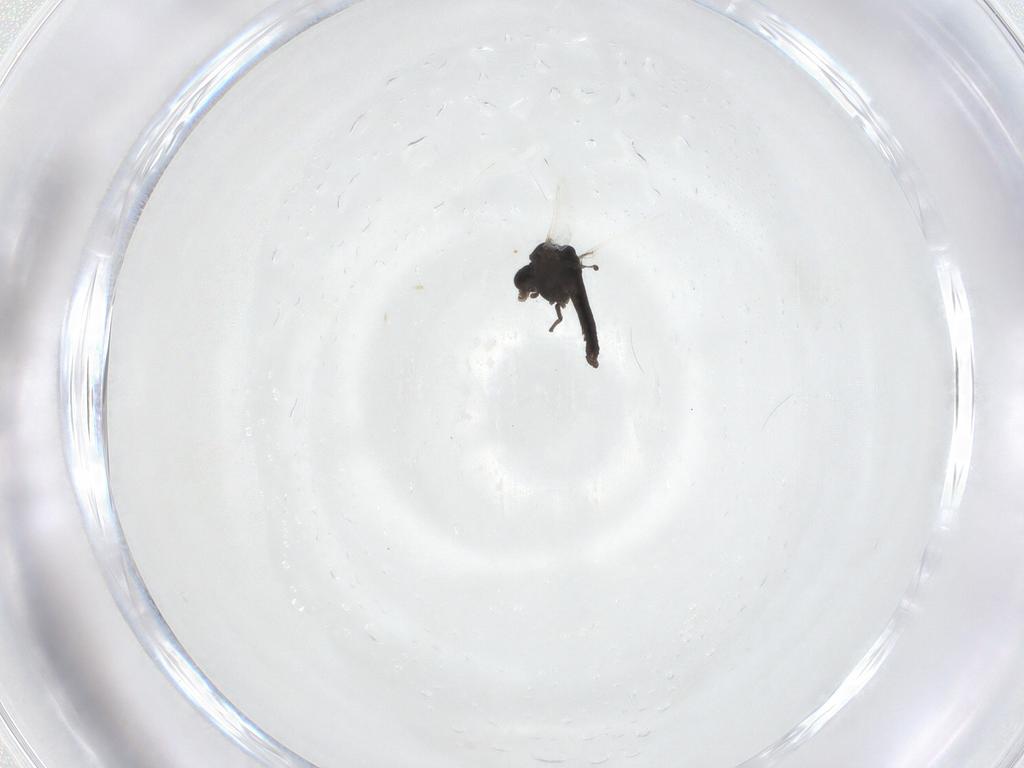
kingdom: Animalia
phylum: Arthropoda
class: Insecta
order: Diptera
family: Chironomidae
